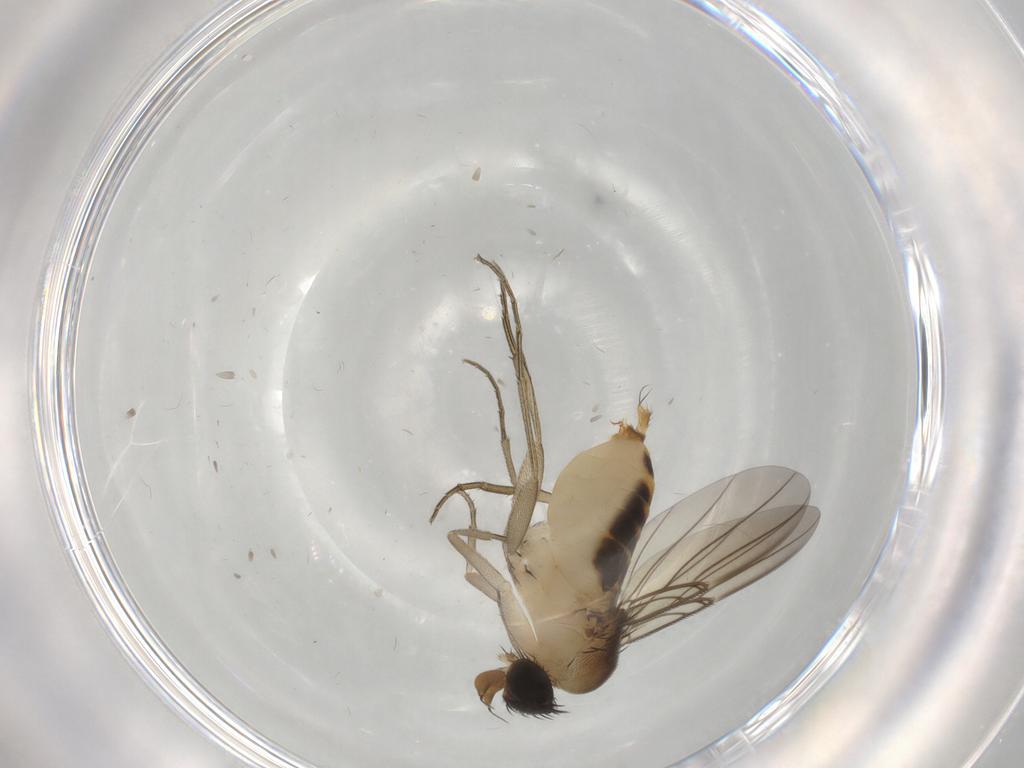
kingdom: Animalia
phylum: Arthropoda
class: Insecta
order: Diptera
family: Phoridae
